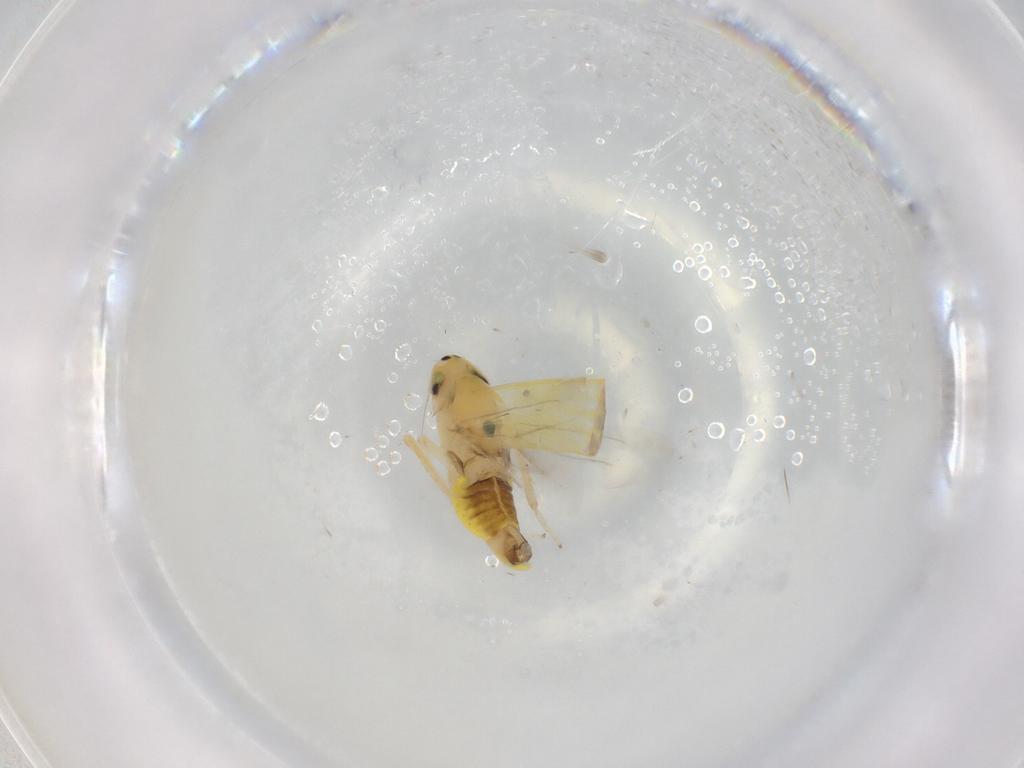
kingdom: Animalia
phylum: Arthropoda
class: Insecta
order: Hemiptera
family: Cicadellidae
